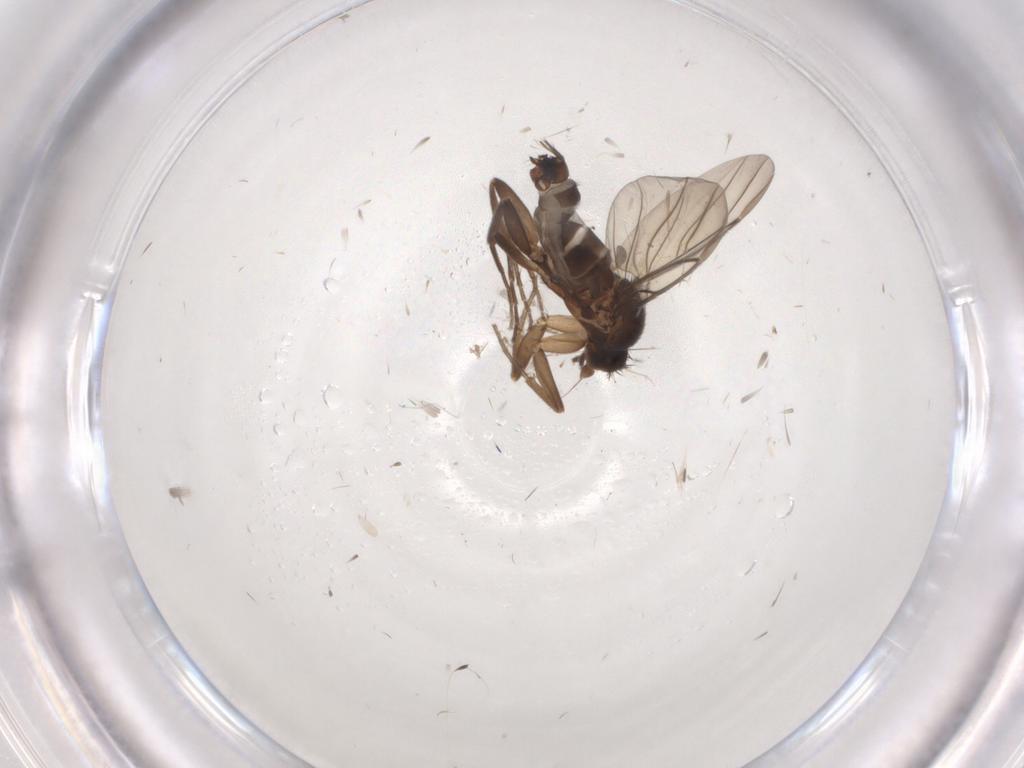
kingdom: Animalia
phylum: Arthropoda
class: Insecta
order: Diptera
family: Chironomidae
